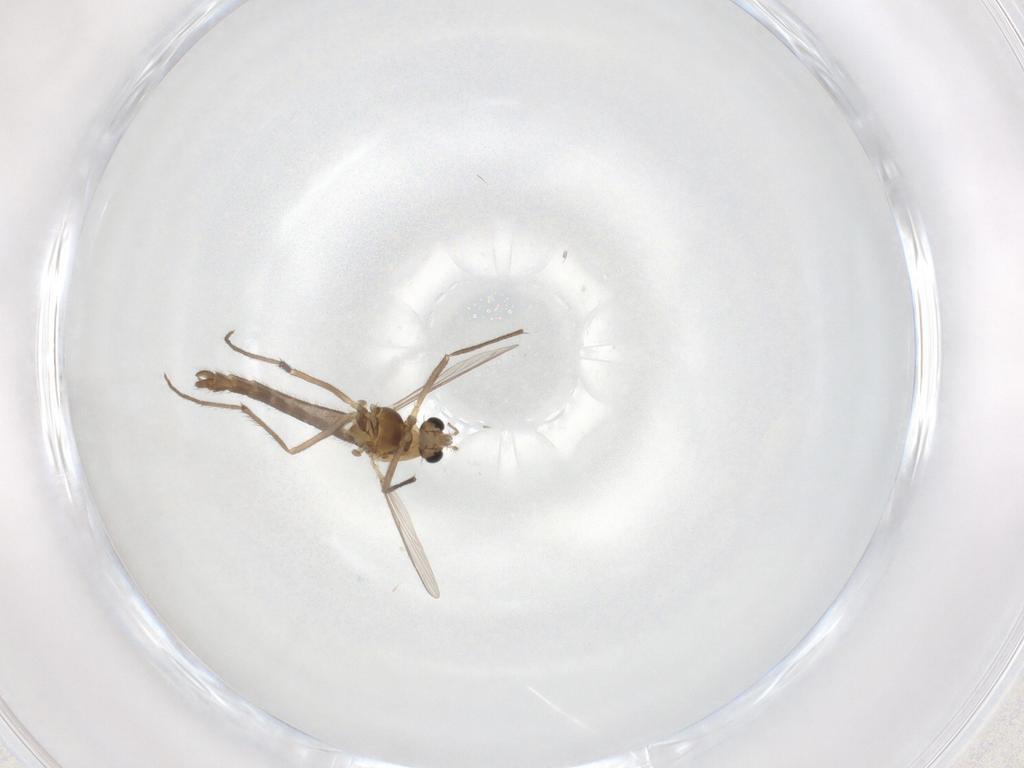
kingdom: Animalia
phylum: Arthropoda
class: Insecta
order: Diptera
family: Chironomidae
